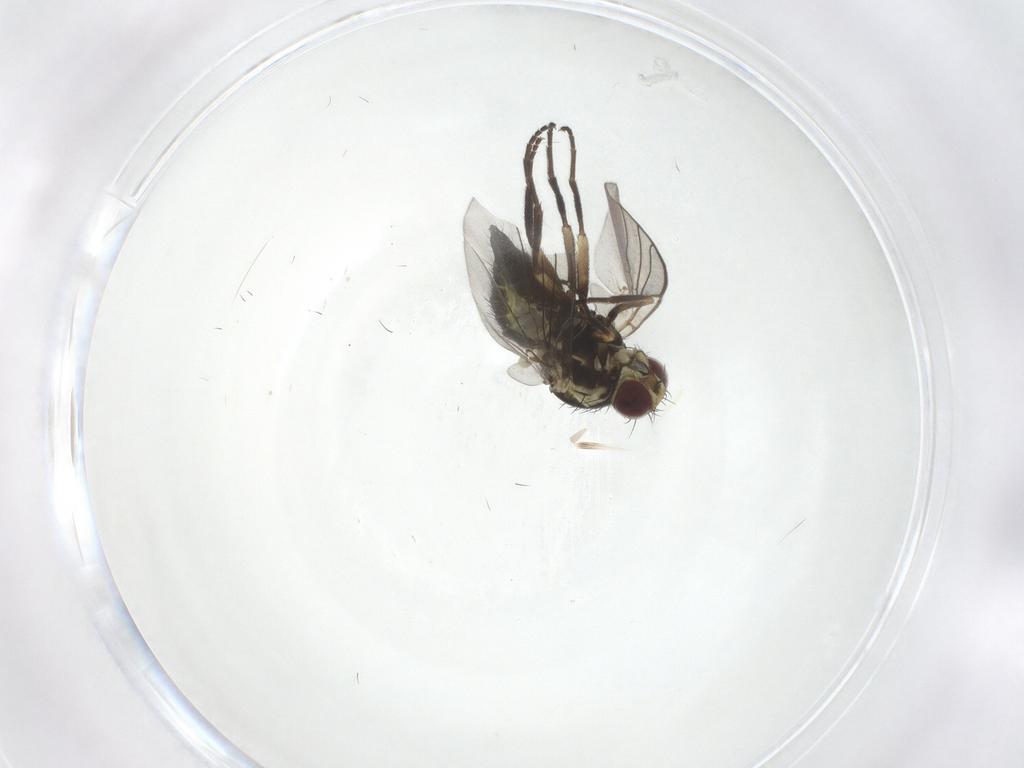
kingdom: Animalia
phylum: Arthropoda
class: Insecta
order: Diptera
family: Agromyzidae
